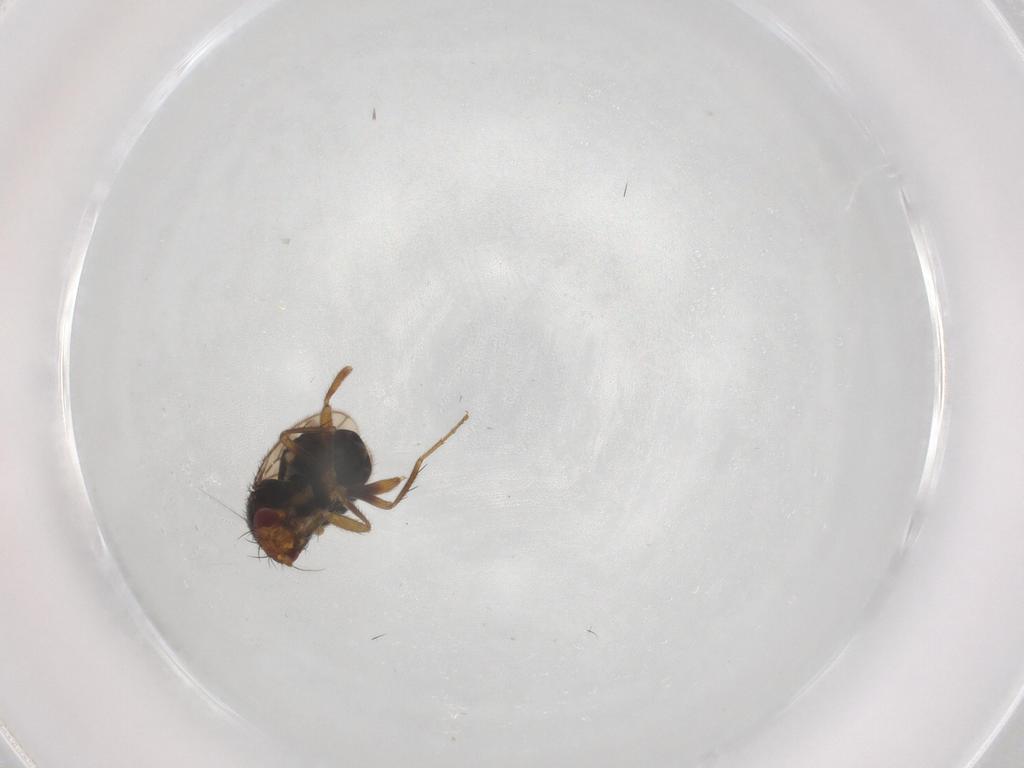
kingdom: Animalia
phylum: Arthropoda
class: Insecta
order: Diptera
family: Sphaeroceridae
